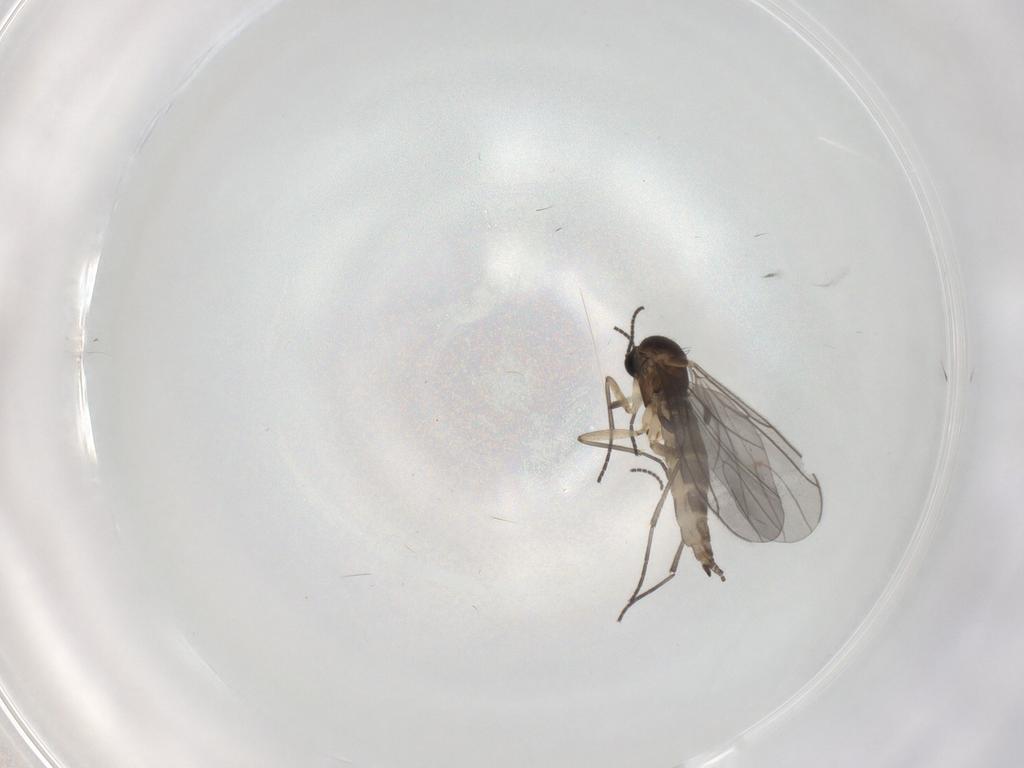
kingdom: Animalia
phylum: Arthropoda
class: Insecta
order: Diptera
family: Sciaridae
